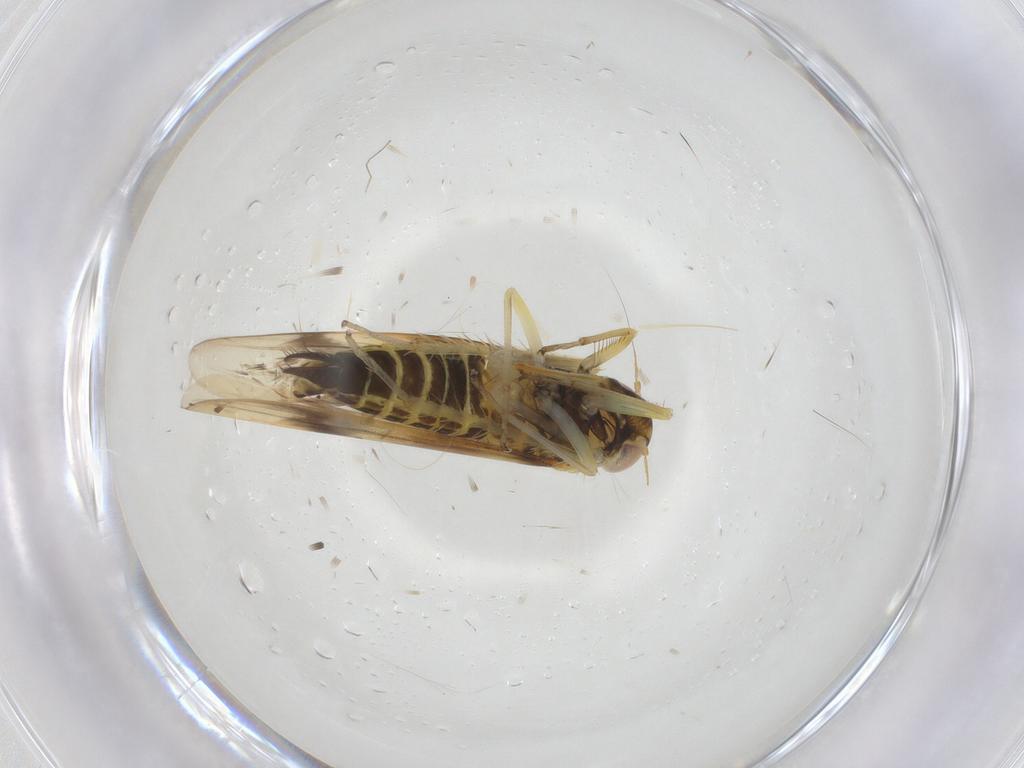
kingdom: Animalia
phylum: Arthropoda
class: Insecta
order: Hemiptera
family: Cicadellidae
